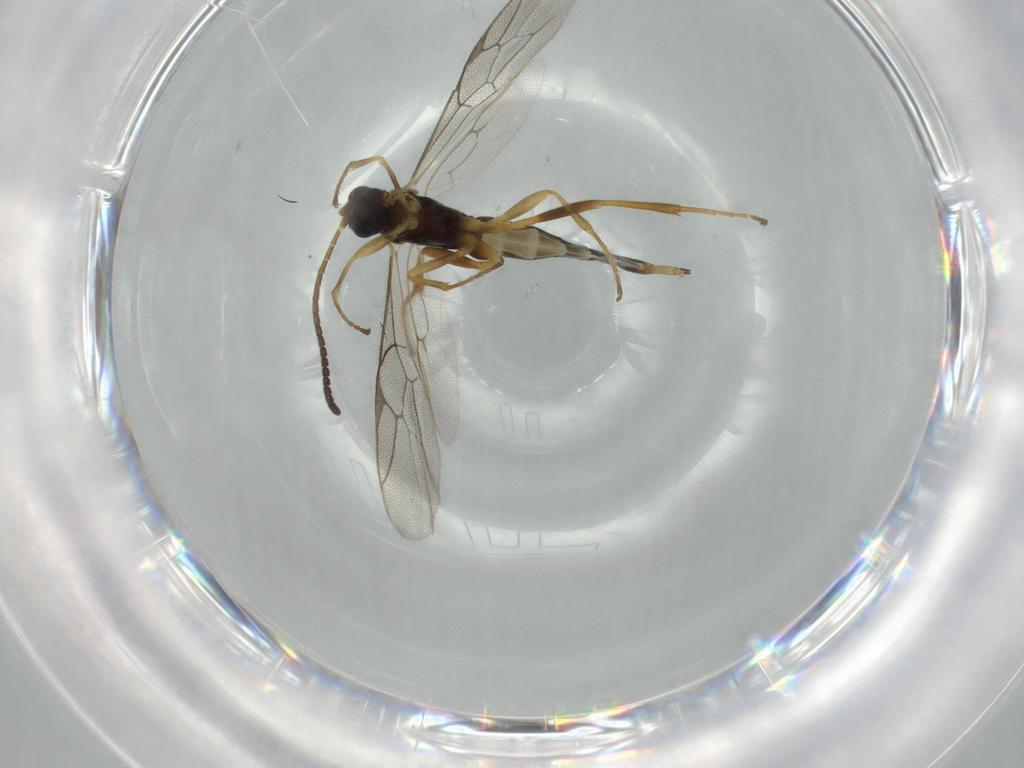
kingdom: Animalia
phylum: Arthropoda
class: Insecta
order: Hymenoptera
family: Ichneumonidae
